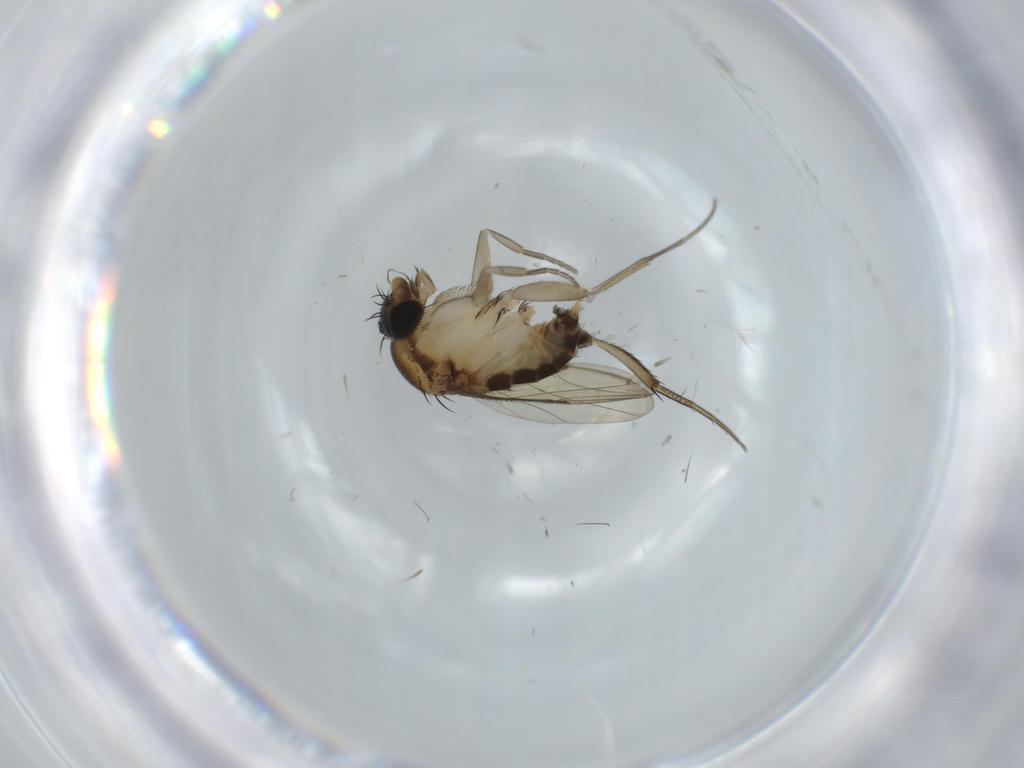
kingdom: Animalia
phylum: Arthropoda
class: Insecta
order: Diptera
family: Phoridae
